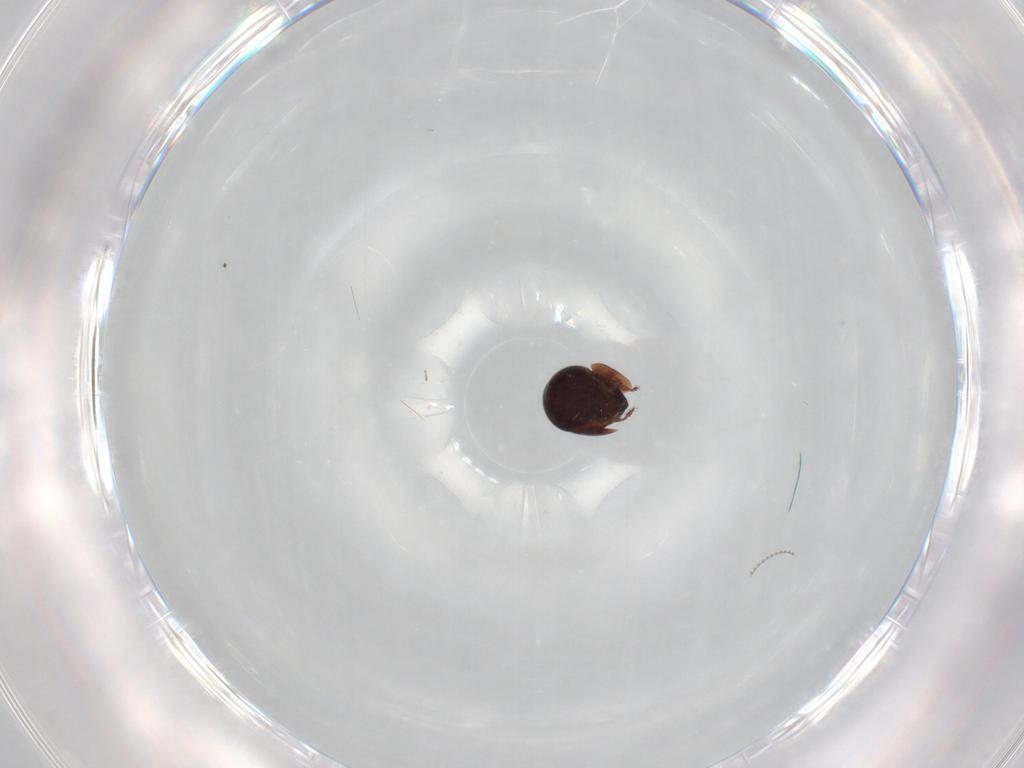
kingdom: Animalia
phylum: Arthropoda
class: Arachnida
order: Sarcoptiformes
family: Galumnidae
